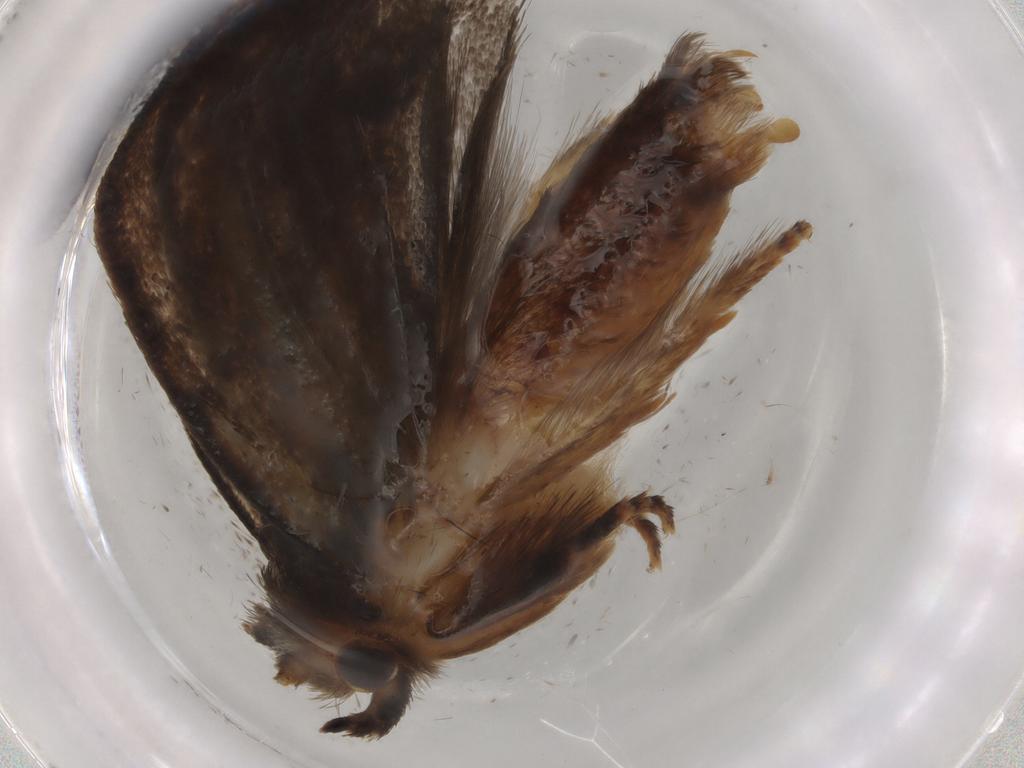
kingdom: Animalia
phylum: Arthropoda
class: Insecta
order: Lepidoptera
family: Tineidae
